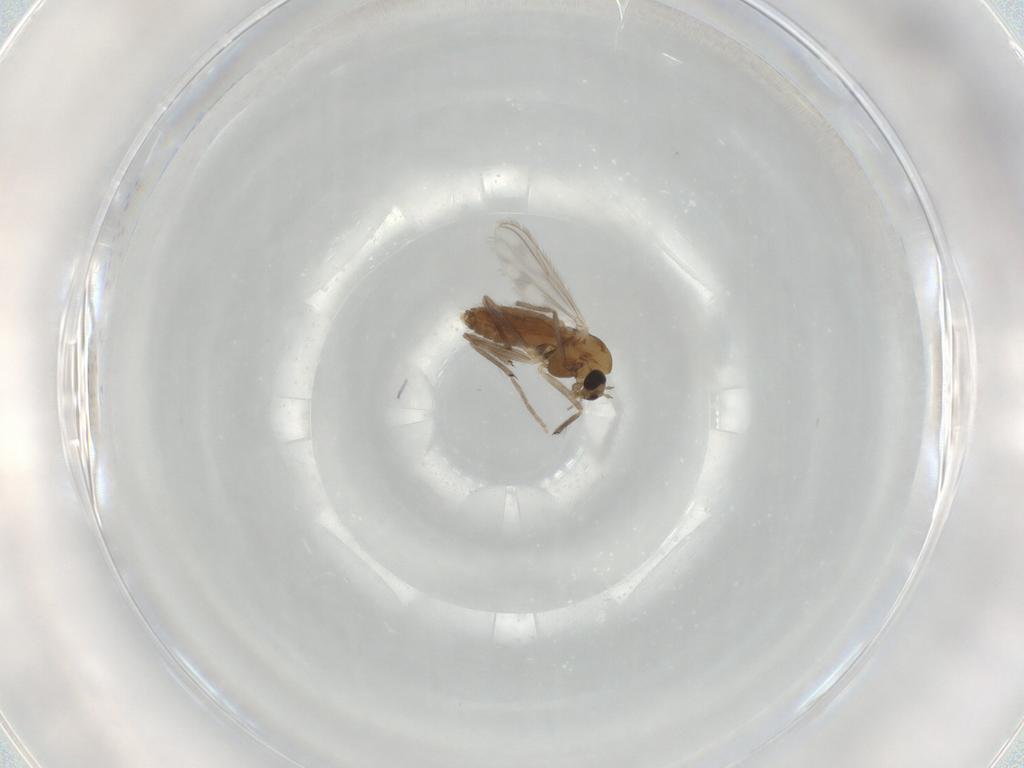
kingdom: Animalia
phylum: Arthropoda
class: Insecta
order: Diptera
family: Chironomidae
